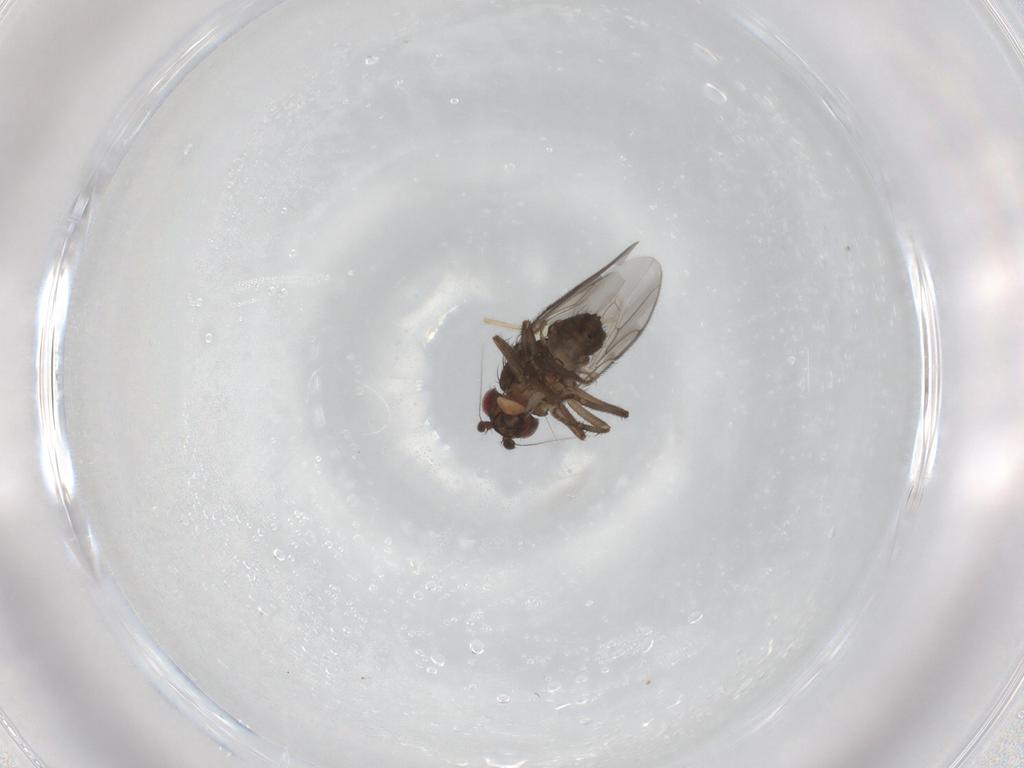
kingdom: Animalia
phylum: Arthropoda
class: Insecta
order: Diptera
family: Sphaeroceridae
